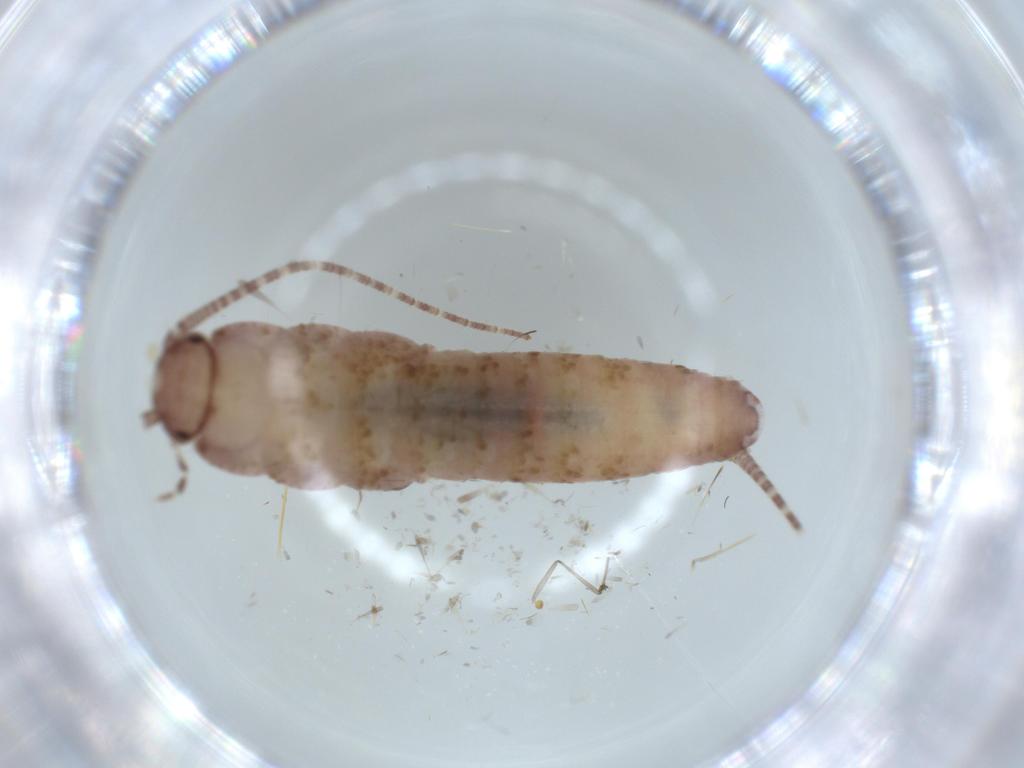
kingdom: Animalia
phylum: Arthropoda
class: Insecta
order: Zygentoma
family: Lepismatidae
